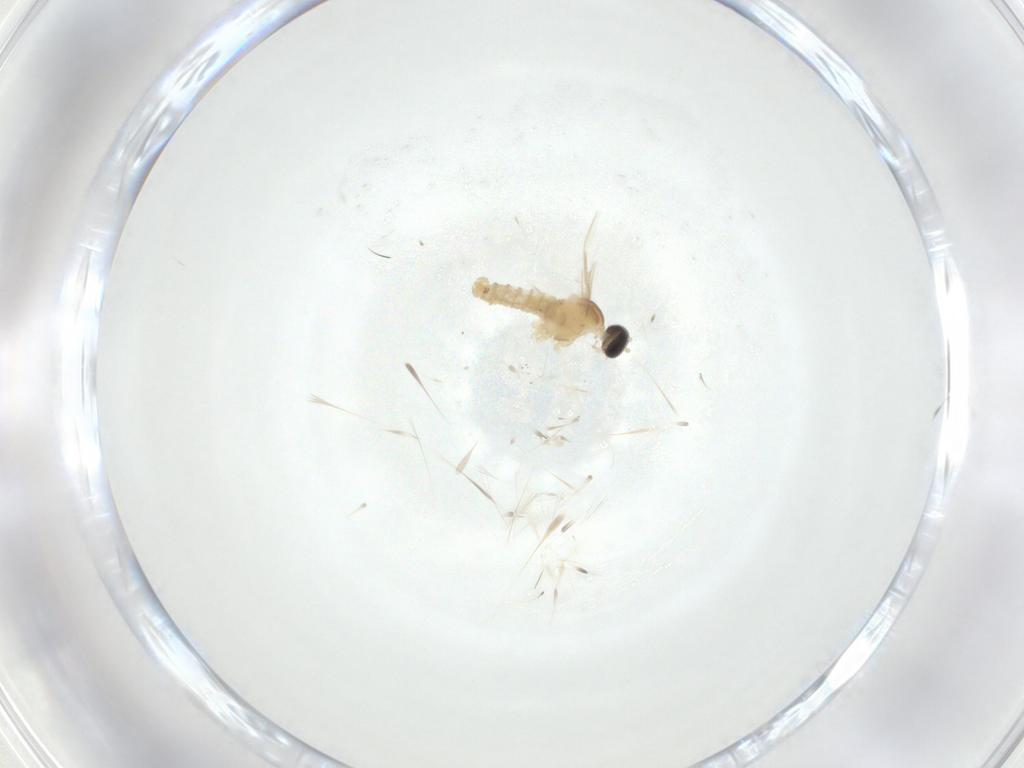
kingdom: Animalia
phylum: Arthropoda
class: Insecta
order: Diptera
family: Cecidomyiidae
